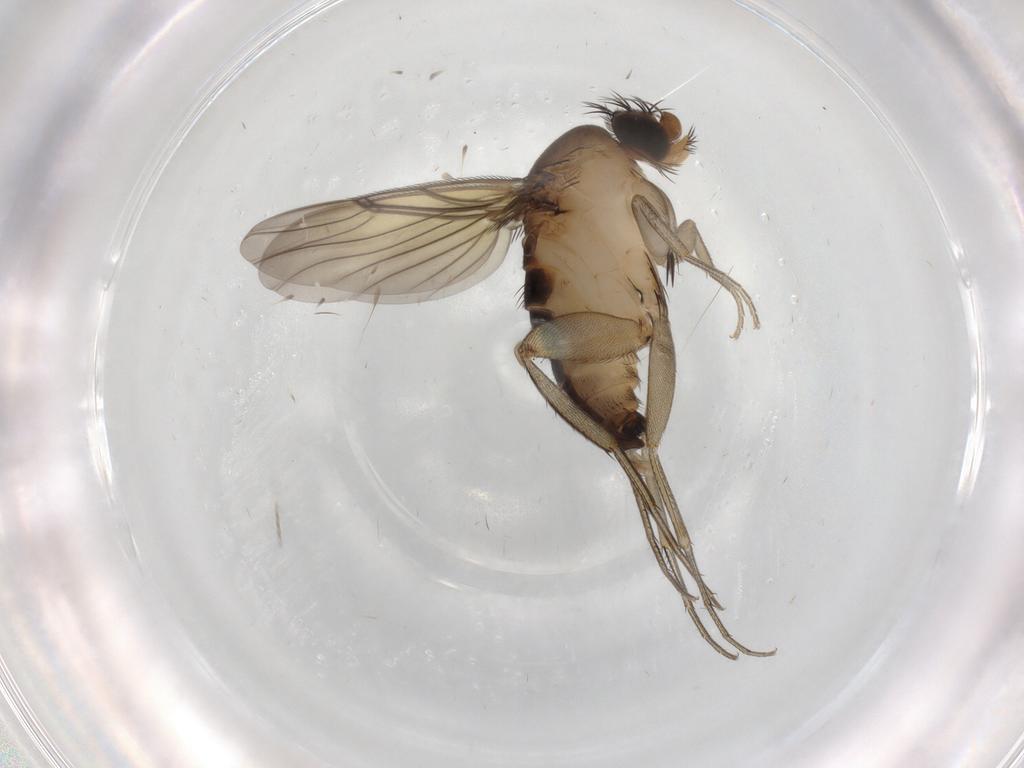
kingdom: Animalia
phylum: Arthropoda
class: Insecta
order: Diptera
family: Phoridae
